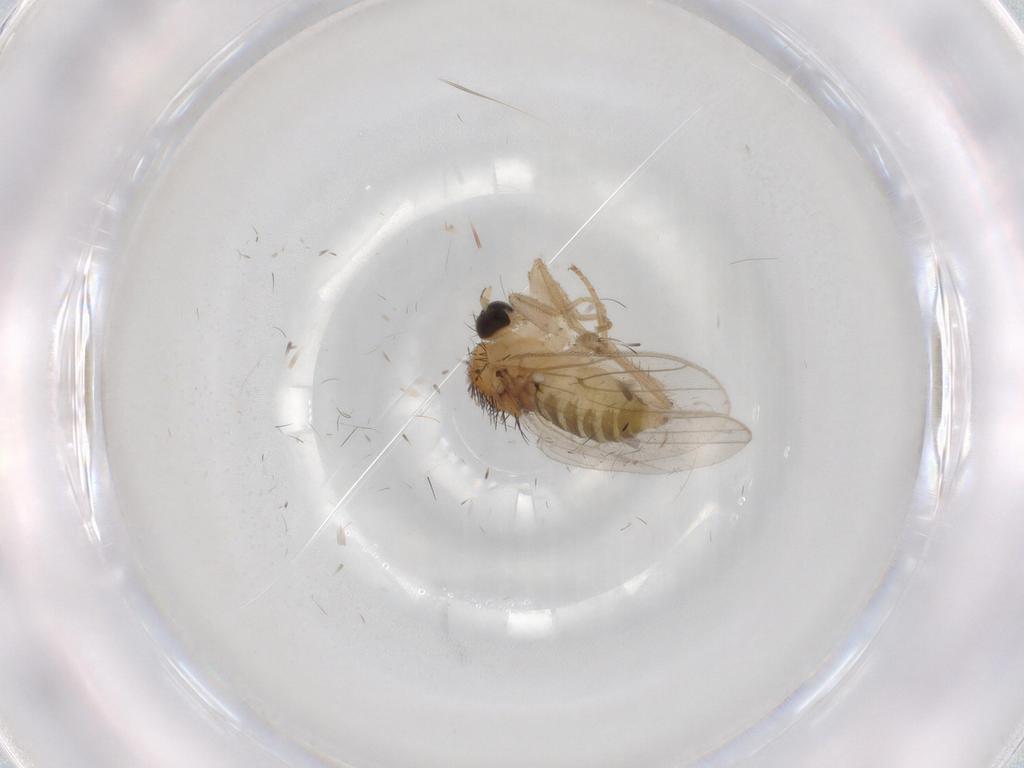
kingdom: Animalia
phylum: Arthropoda
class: Insecta
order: Diptera
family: Hybotidae
